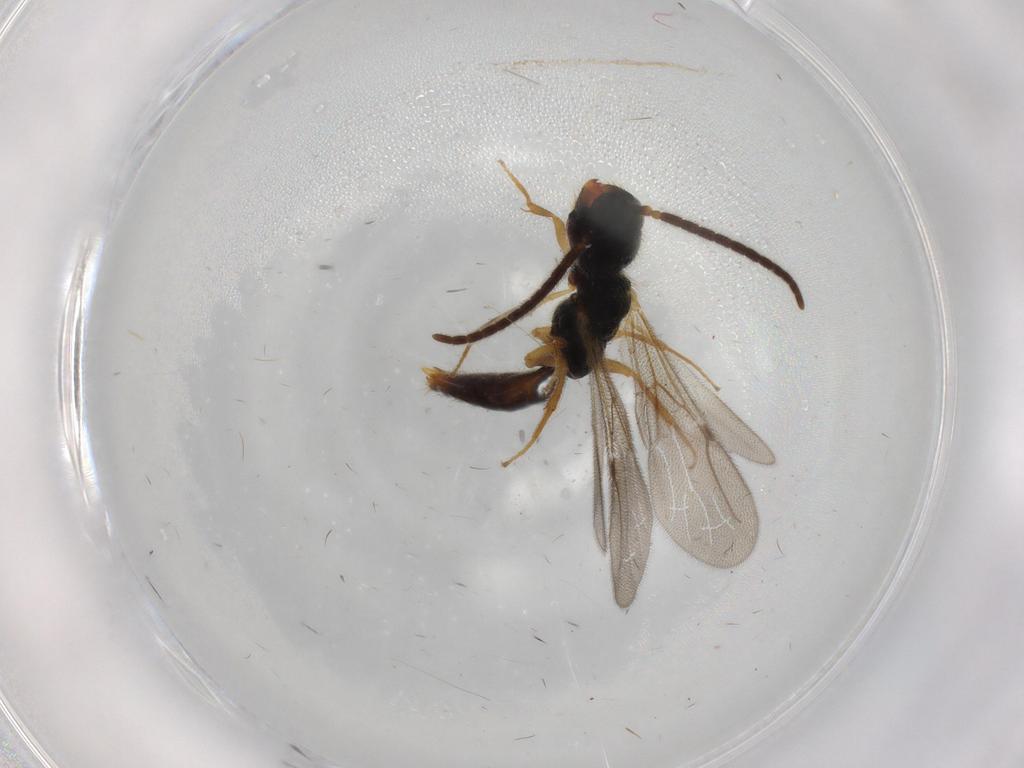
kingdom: Animalia
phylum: Arthropoda
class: Insecta
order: Hymenoptera
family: Bethylidae
